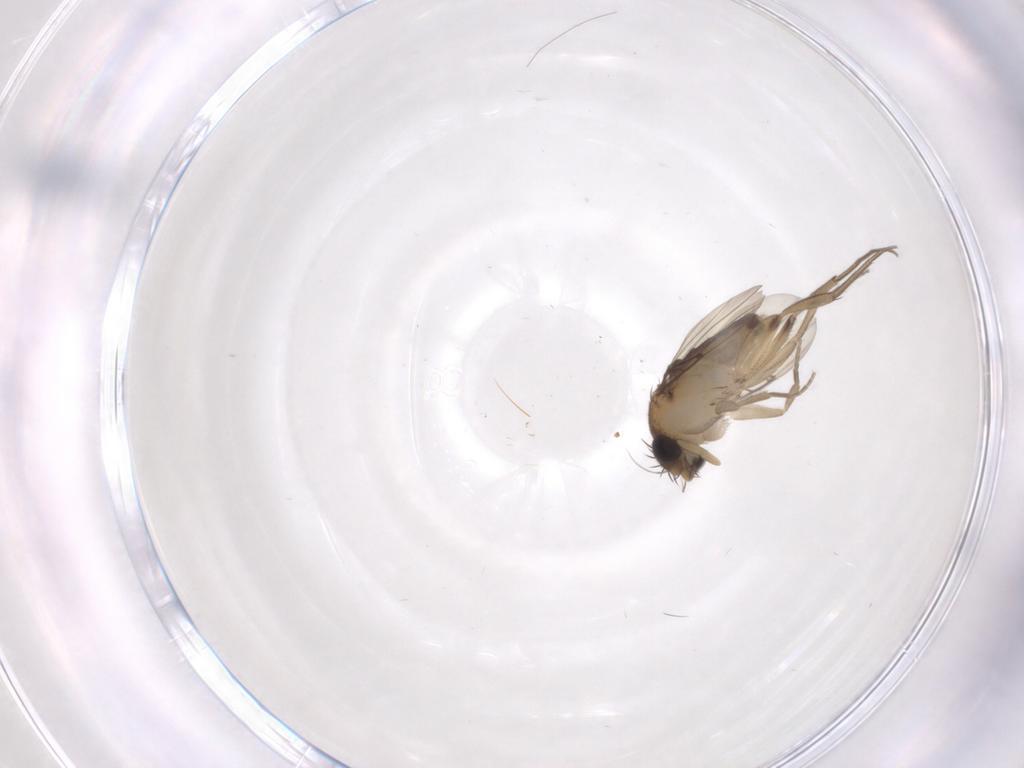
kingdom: Animalia
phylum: Arthropoda
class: Insecta
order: Diptera
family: Phoridae
